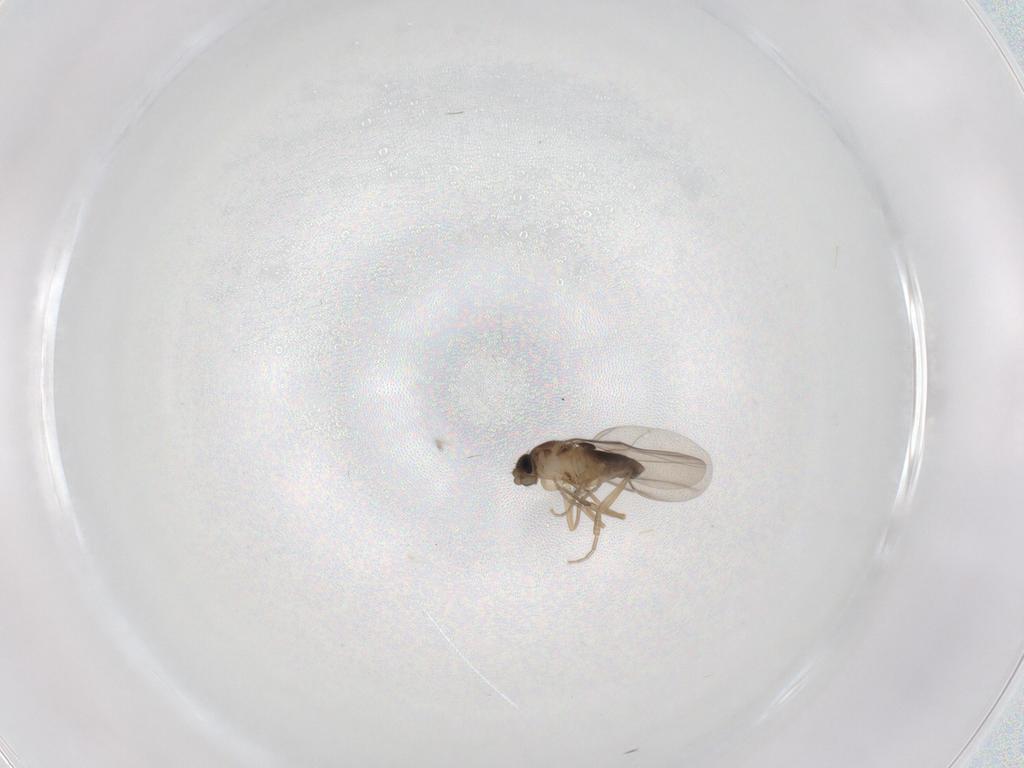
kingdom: Animalia
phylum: Arthropoda
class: Insecta
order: Diptera
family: Phoridae
